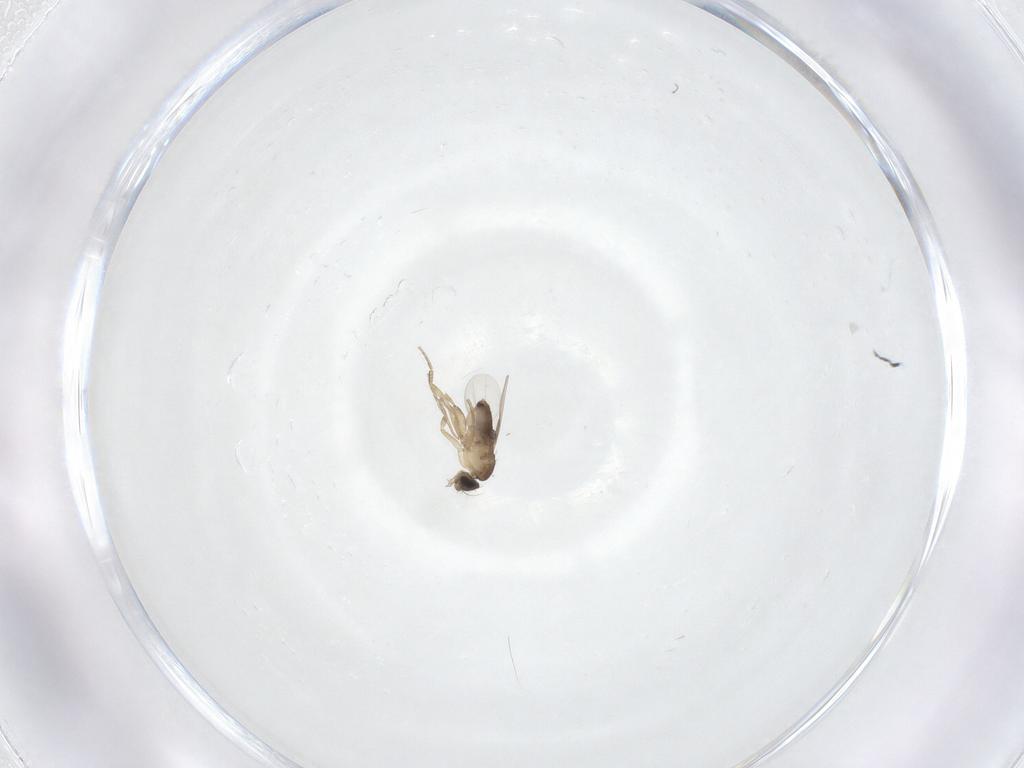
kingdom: Animalia
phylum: Arthropoda
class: Insecta
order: Diptera
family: Phoridae
